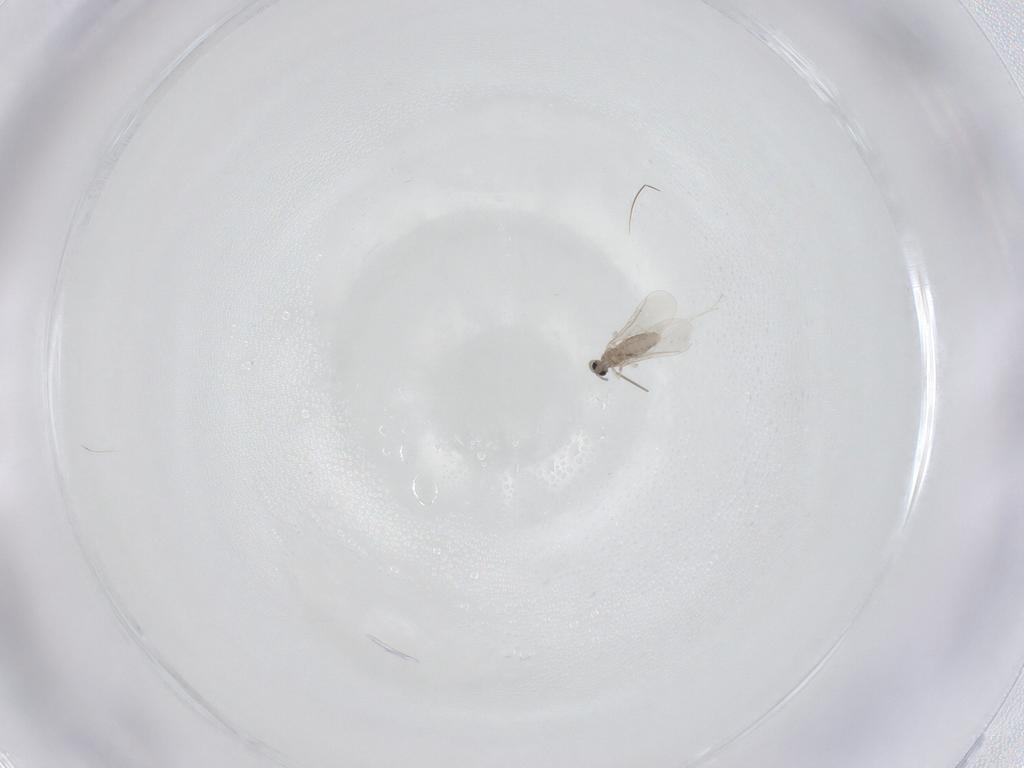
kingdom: Animalia
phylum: Arthropoda
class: Insecta
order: Diptera
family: Cecidomyiidae
